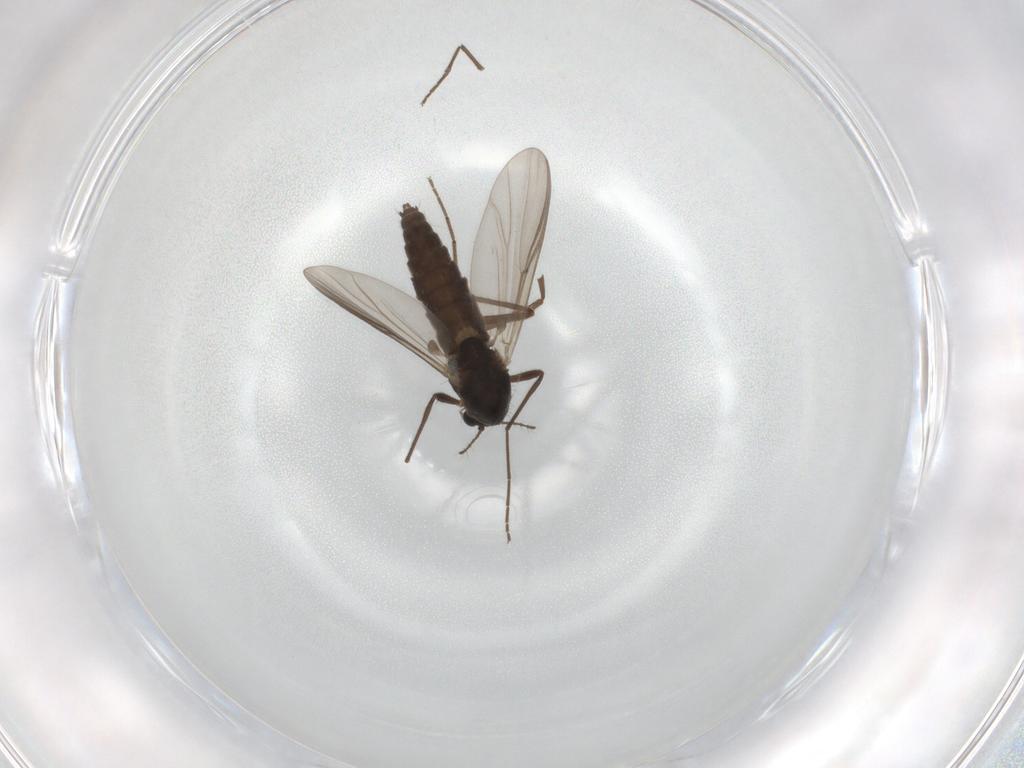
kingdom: Animalia
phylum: Arthropoda
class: Insecta
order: Diptera
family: Chironomidae
